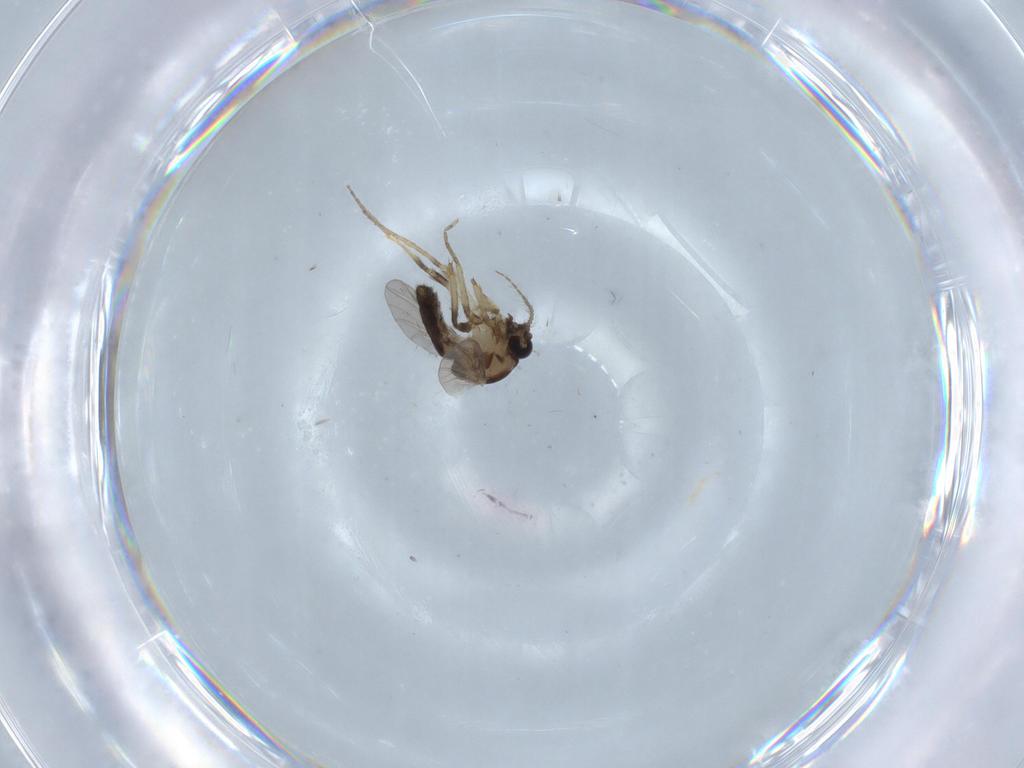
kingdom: Animalia
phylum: Arthropoda
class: Insecta
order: Diptera
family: Ceratopogonidae
